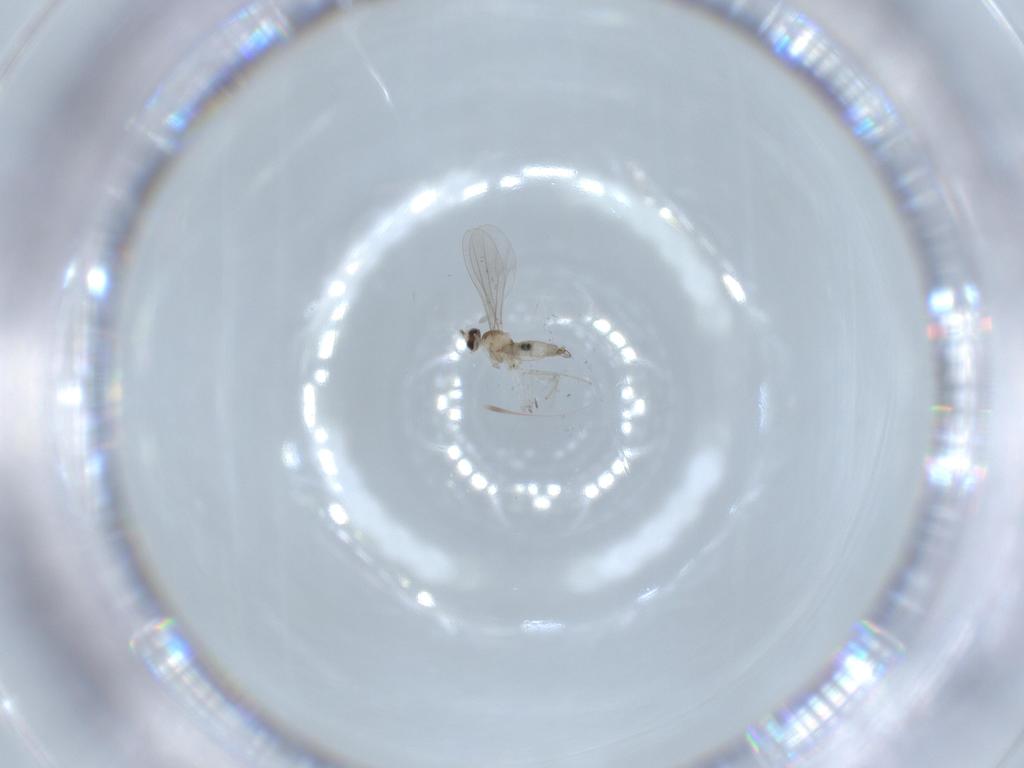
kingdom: Animalia
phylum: Arthropoda
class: Insecta
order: Diptera
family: Cecidomyiidae
